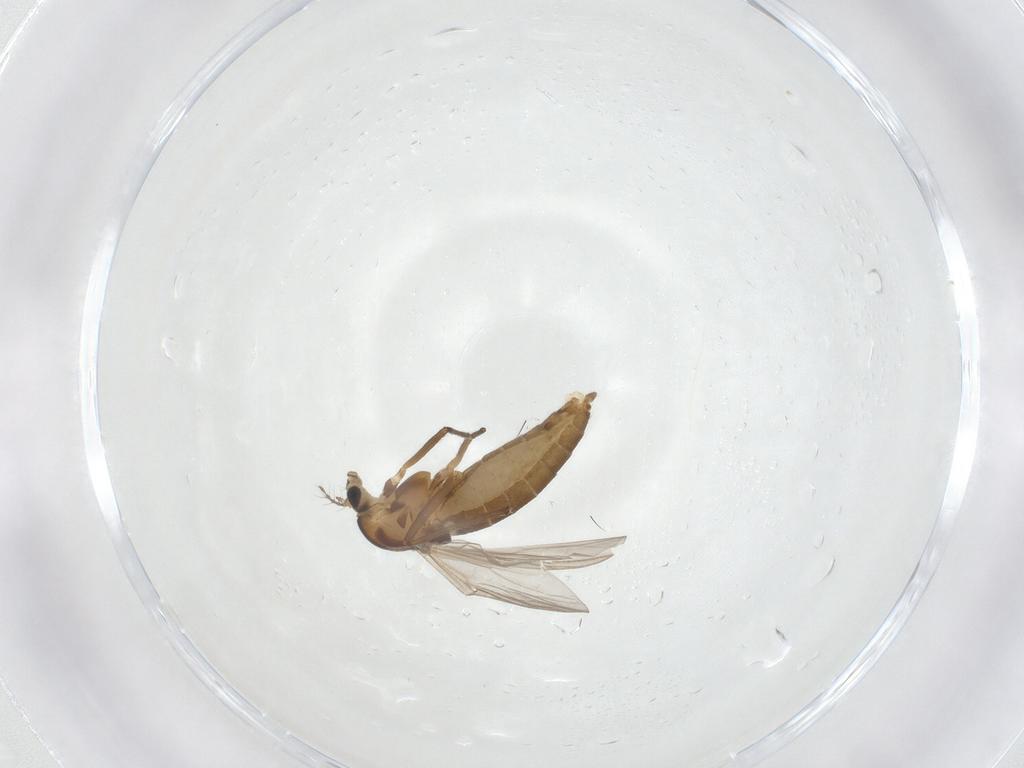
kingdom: Animalia
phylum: Arthropoda
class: Insecta
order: Diptera
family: Chironomidae
